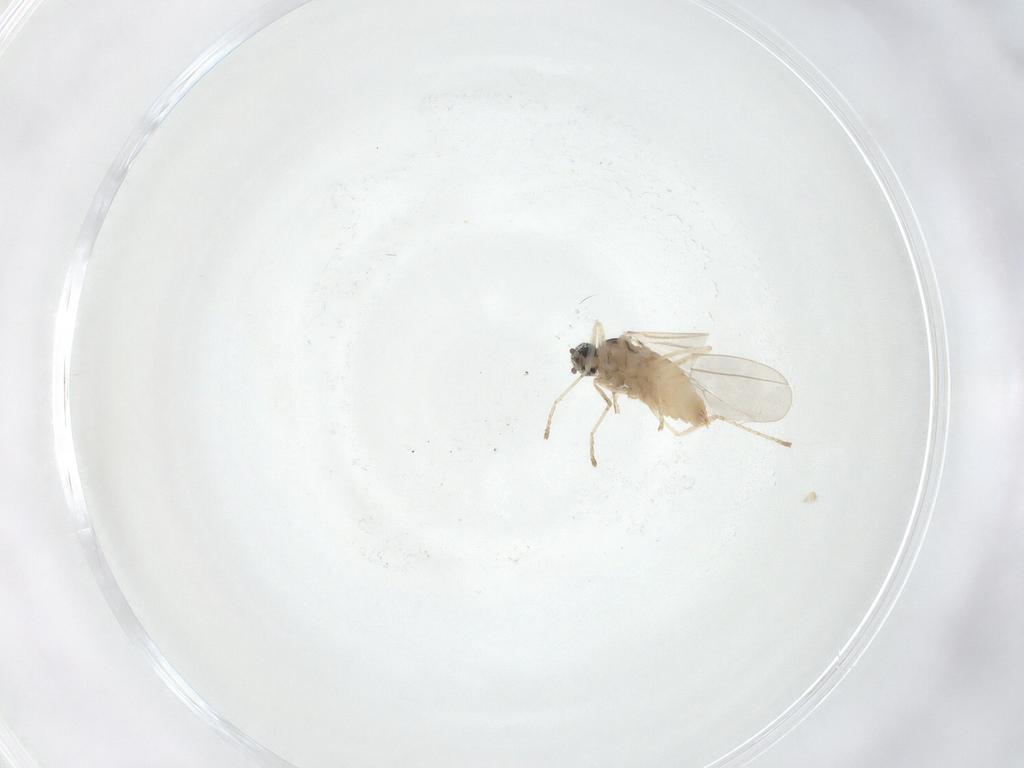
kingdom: Animalia
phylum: Arthropoda
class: Insecta
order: Diptera
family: Cecidomyiidae
